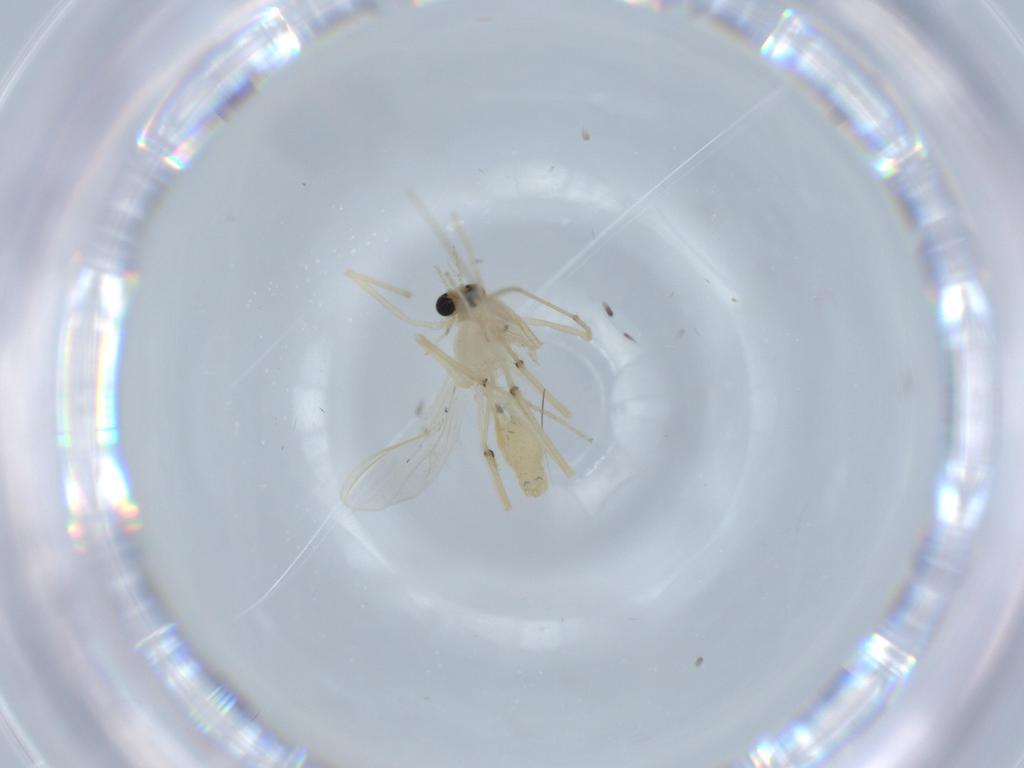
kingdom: Animalia
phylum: Arthropoda
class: Insecta
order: Diptera
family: Chironomidae
